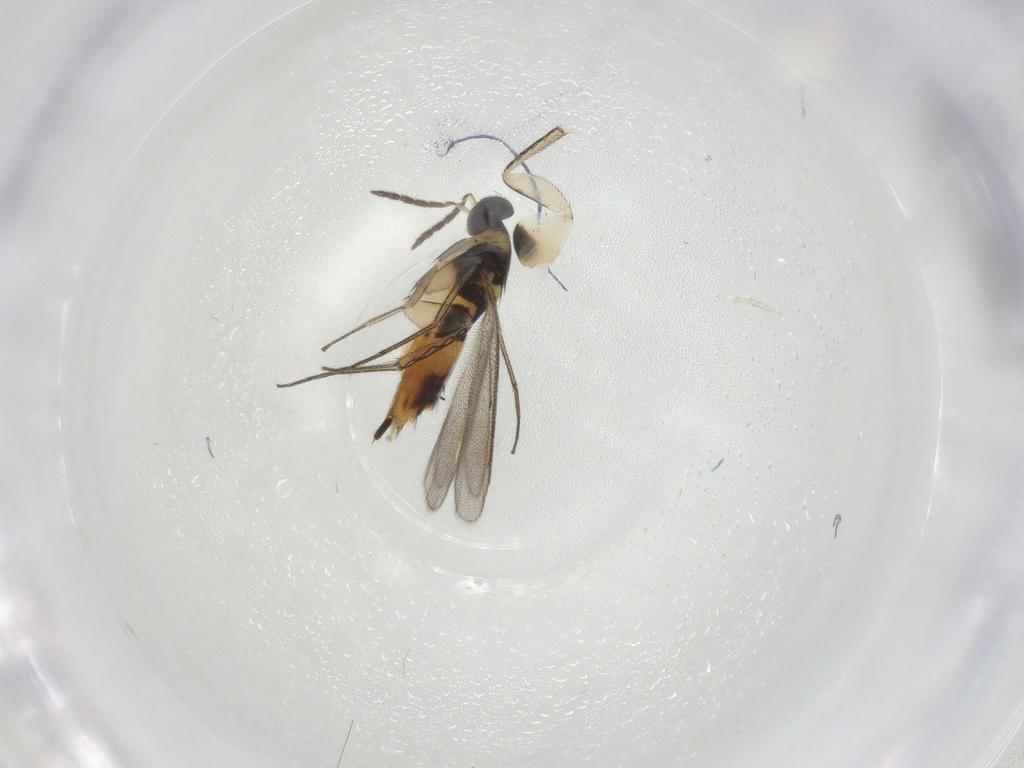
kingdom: Animalia
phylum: Arthropoda
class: Insecta
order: Hymenoptera
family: Eulophidae
